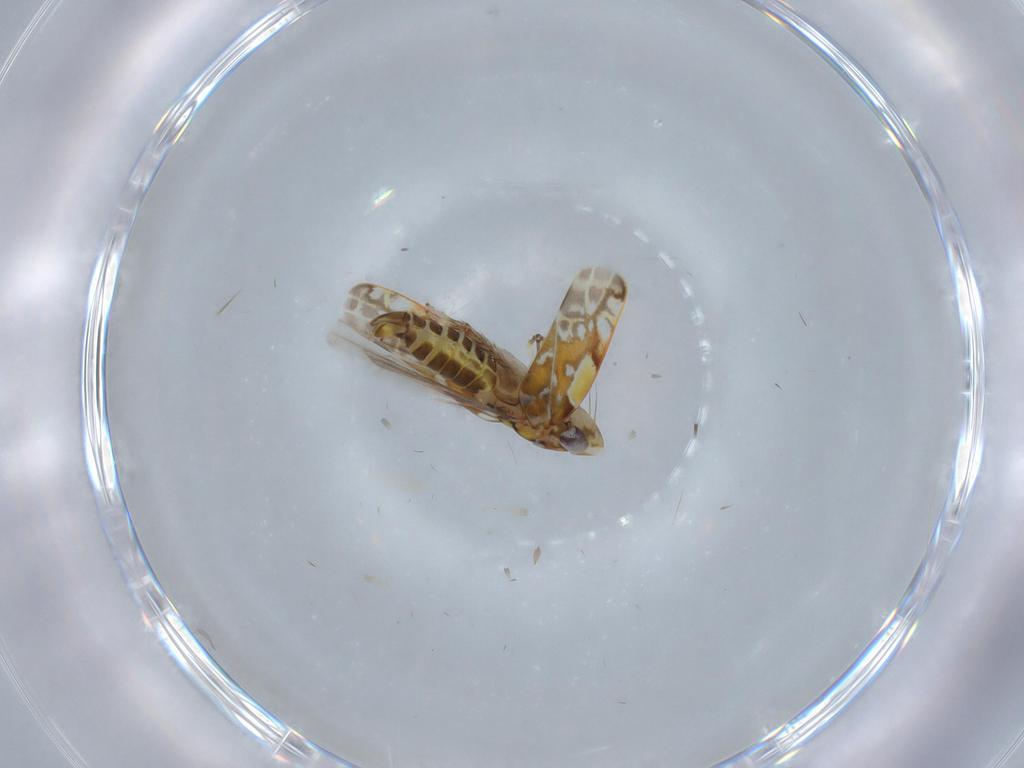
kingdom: Animalia
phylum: Arthropoda
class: Insecta
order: Hemiptera
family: Cicadellidae
